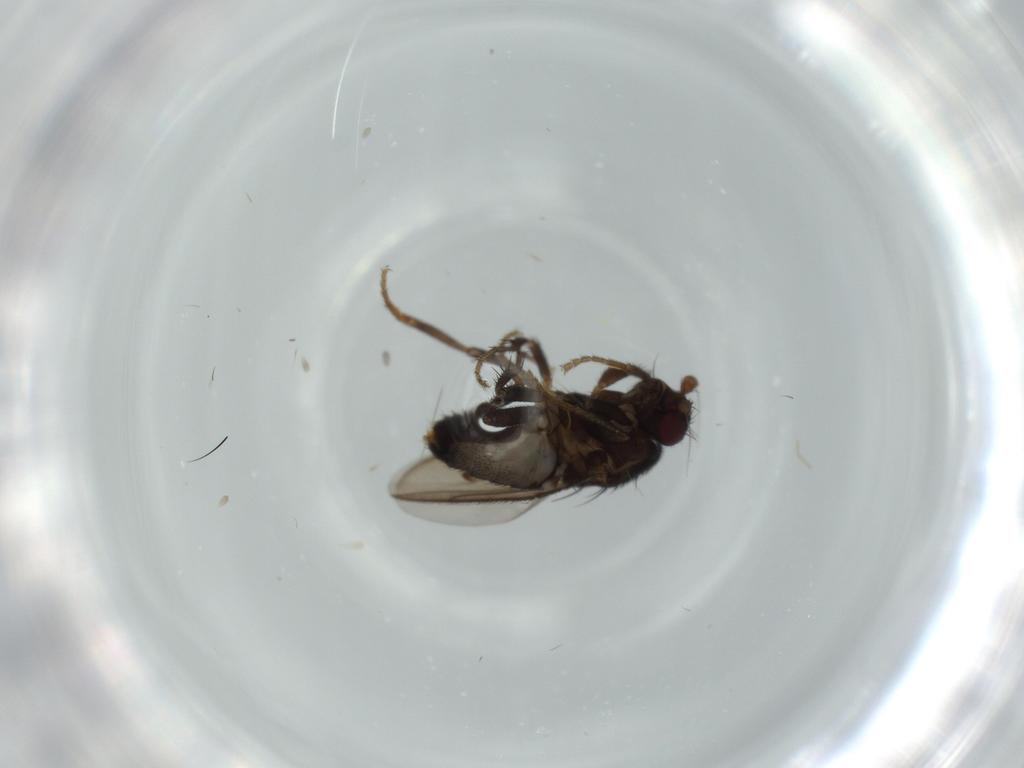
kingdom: Animalia
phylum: Arthropoda
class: Insecta
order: Diptera
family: Sphaeroceridae
